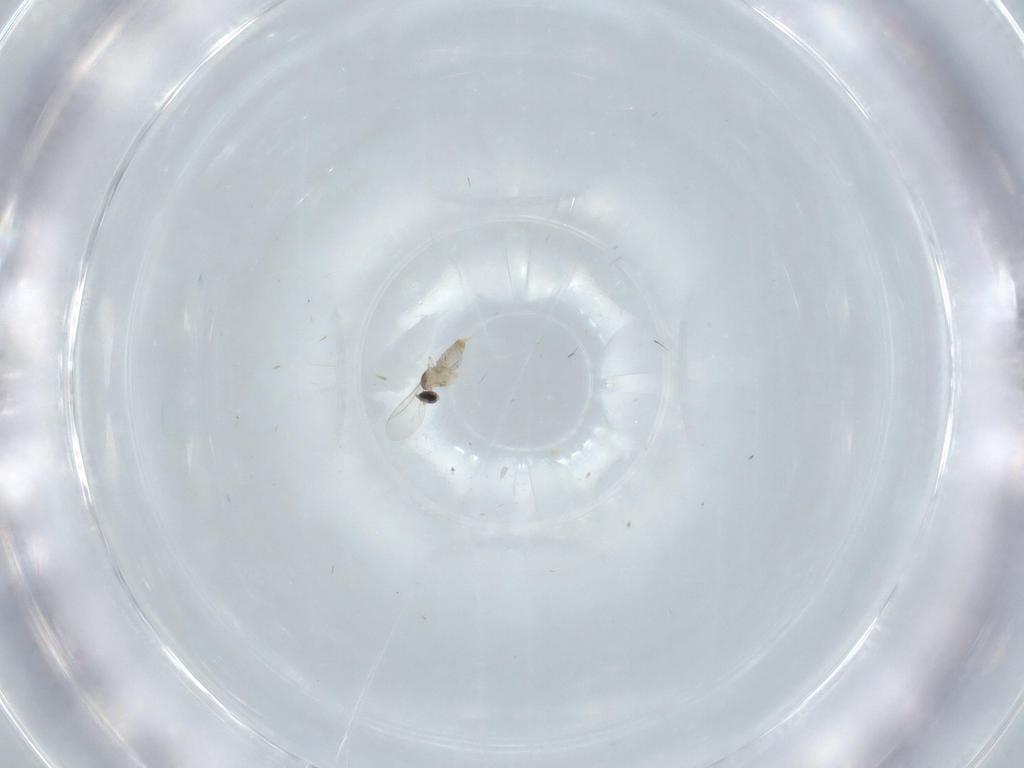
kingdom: Animalia
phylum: Arthropoda
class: Insecta
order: Diptera
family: Cecidomyiidae
